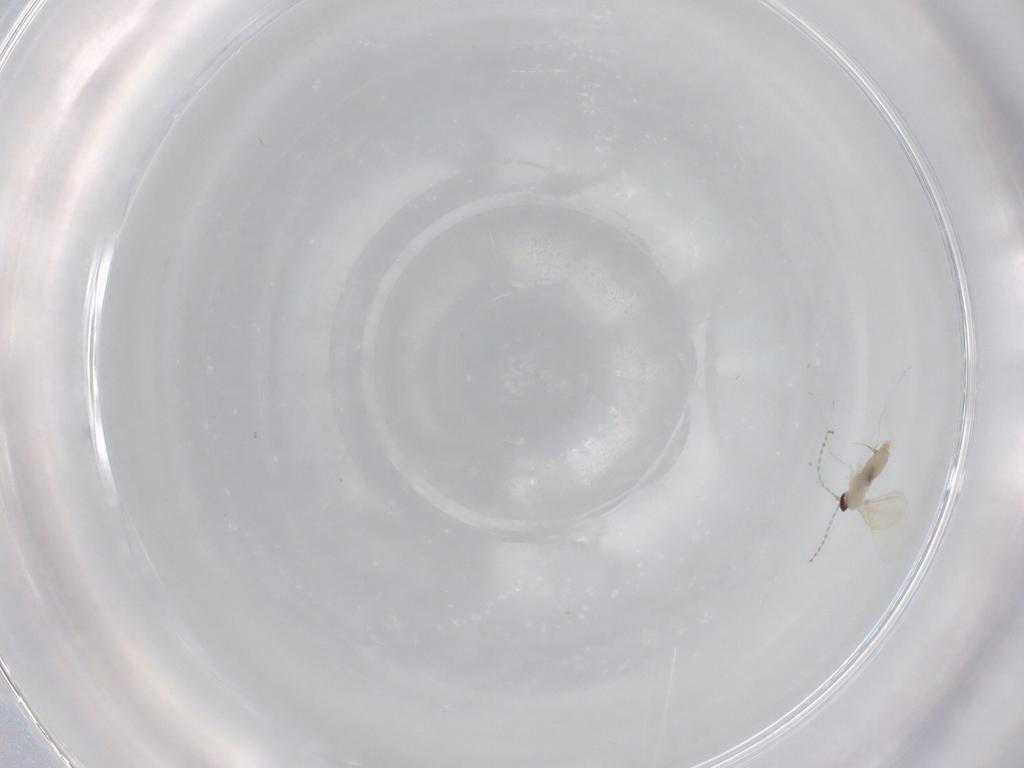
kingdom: Animalia
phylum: Arthropoda
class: Insecta
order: Diptera
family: Cecidomyiidae
